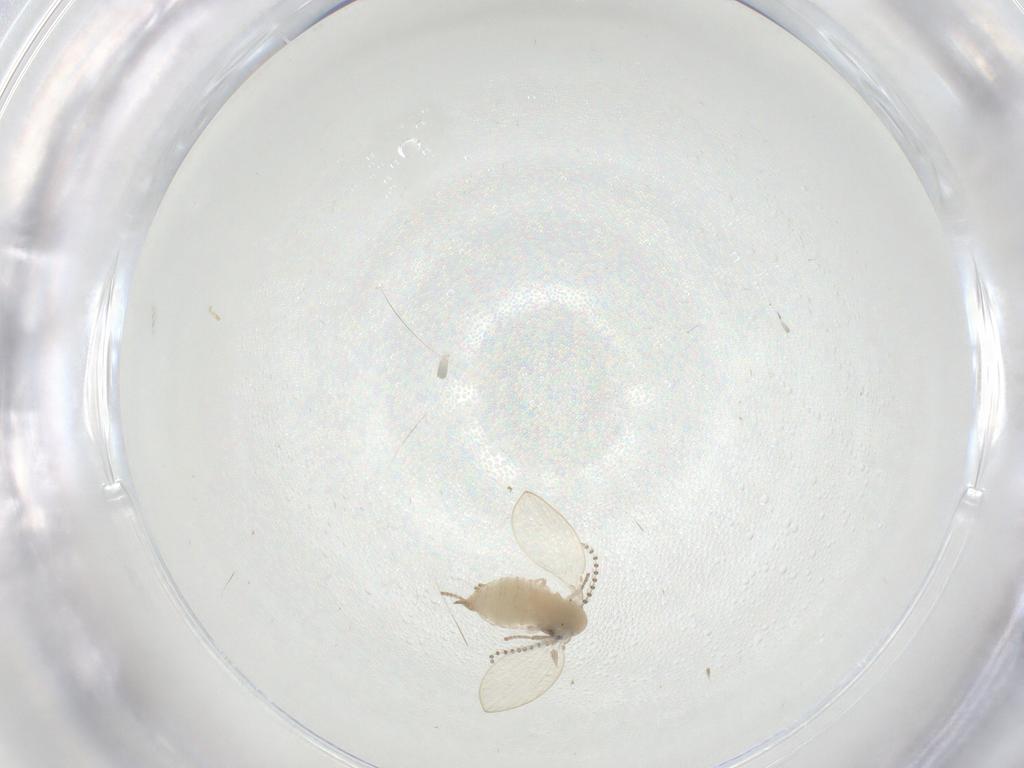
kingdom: Animalia
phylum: Arthropoda
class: Insecta
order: Diptera
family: Psychodidae
